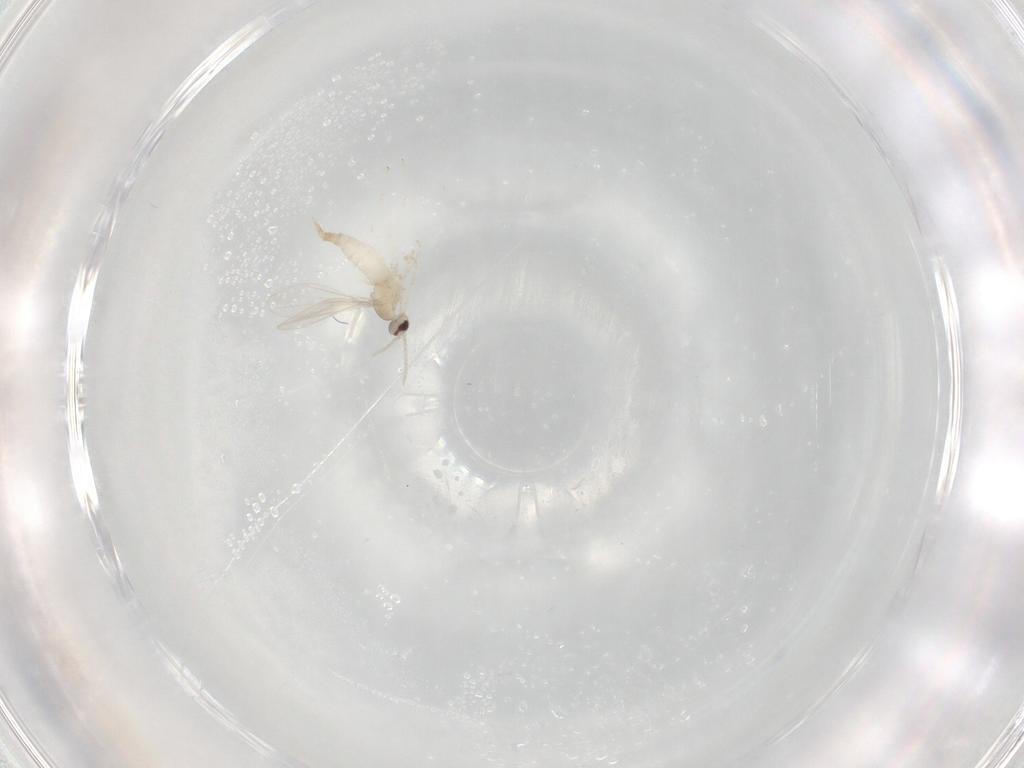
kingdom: Animalia
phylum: Arthropoda
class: Insecta
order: Diptera
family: Cecidomyiidae
